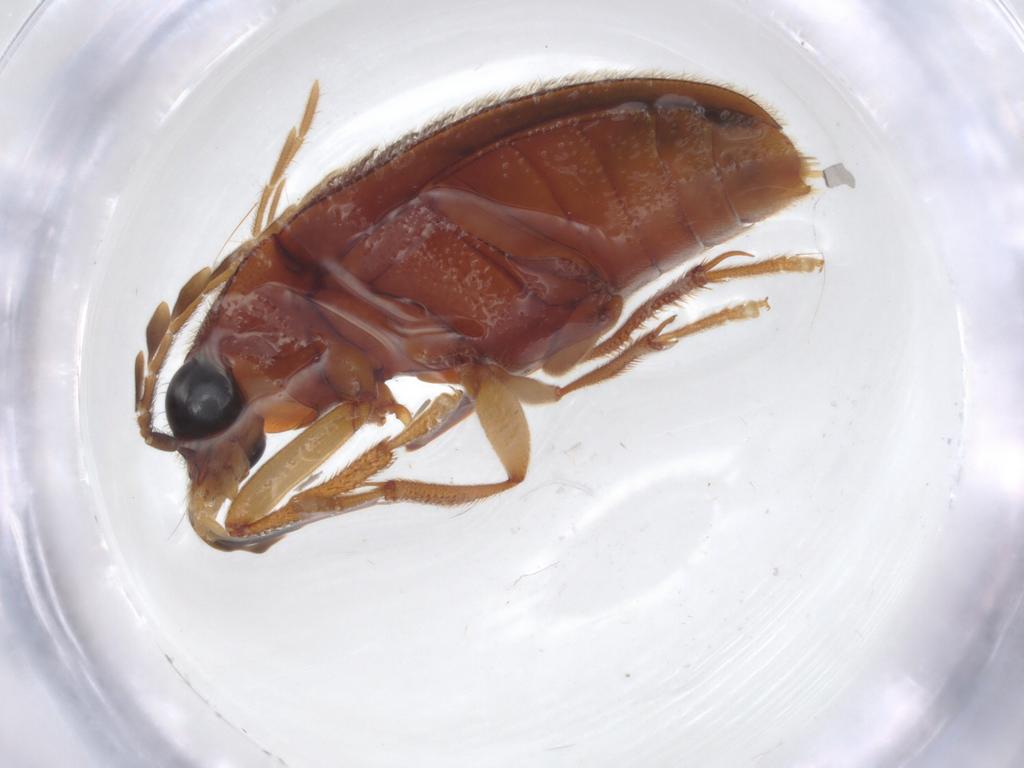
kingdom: Animalia
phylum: Arthropoda
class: Insecta
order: Coleoptera
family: Ptilodactylidae
